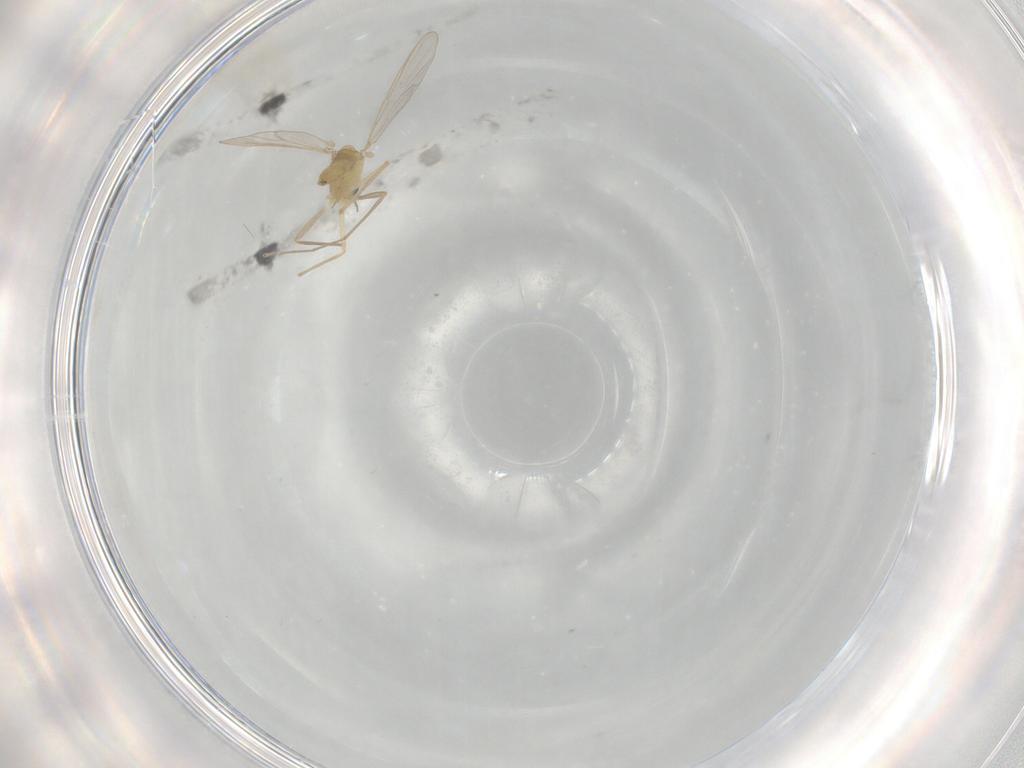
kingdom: Animalia
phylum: Arthropoda
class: Insecta
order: Diptera
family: Chironomidae
